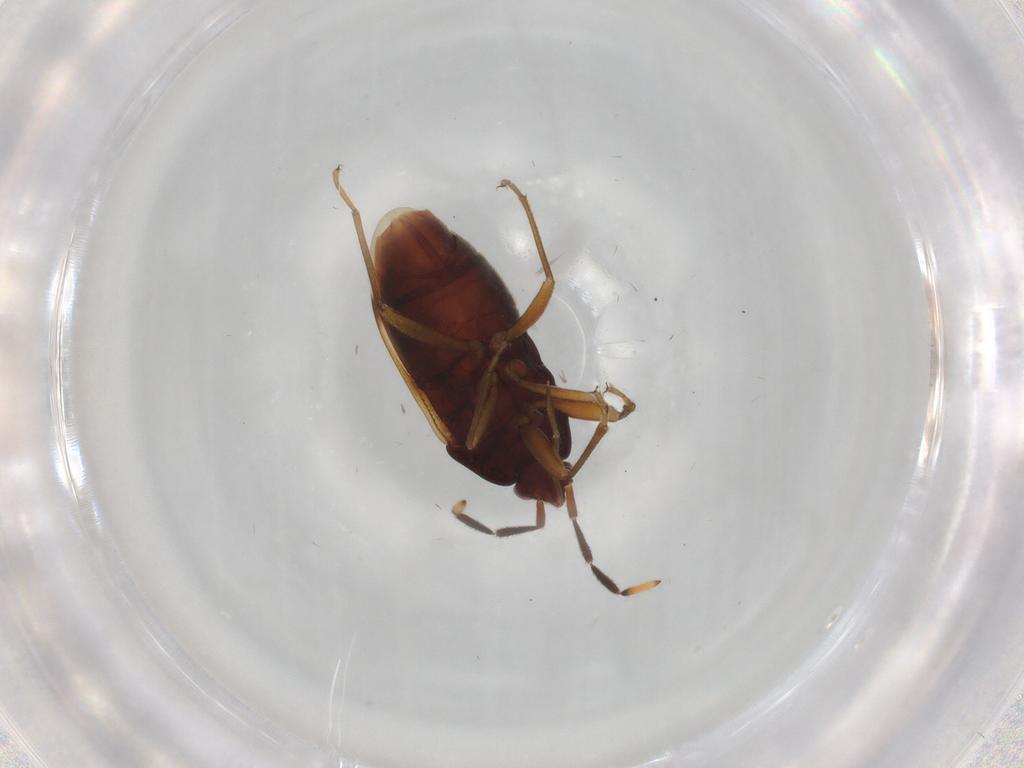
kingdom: Animalia
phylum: Arthropoda
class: Insecta
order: Hemiptera
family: Rhyparochromidae
